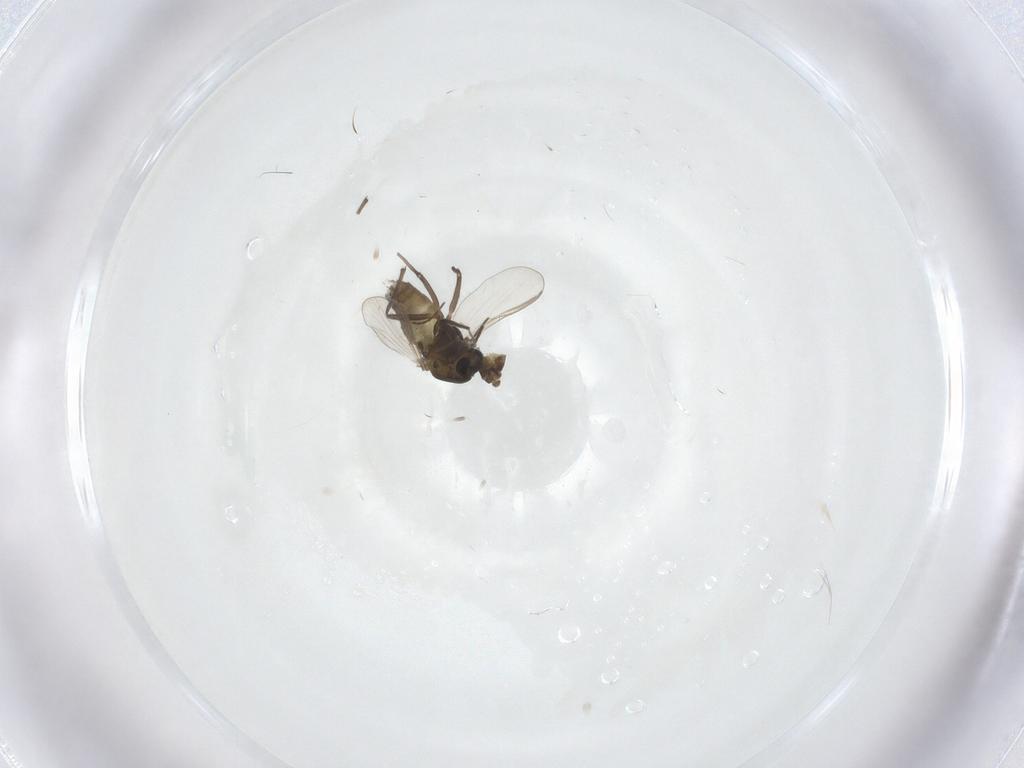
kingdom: Animalia
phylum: Arthropoda
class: Insecta
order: Diptera
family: Chironomidae
